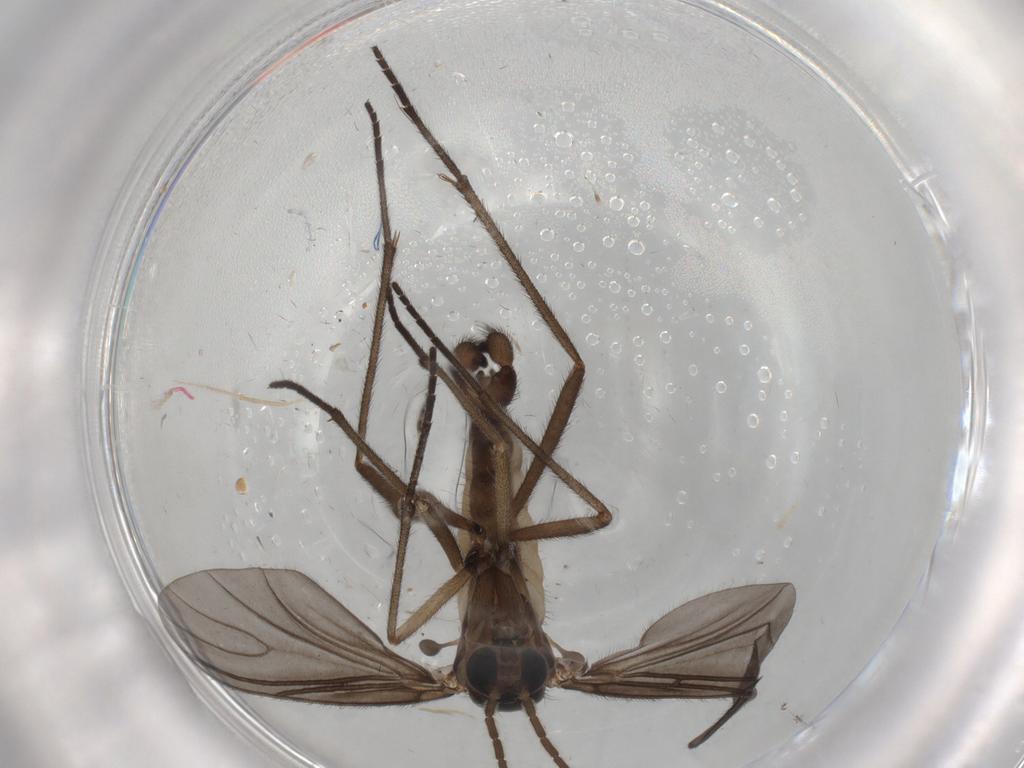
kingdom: Animalia
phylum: Arthropoda
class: Insecta
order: Diptera
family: Sciaridae
